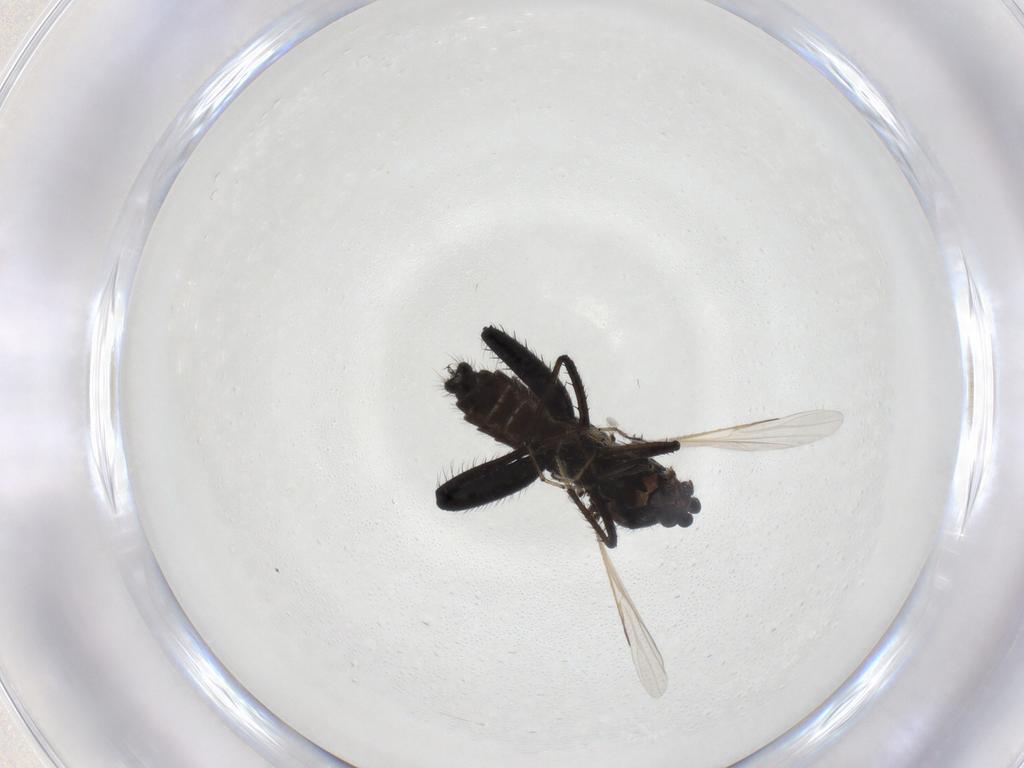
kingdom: Animalia
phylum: Arthropoda
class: Insecta
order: Diptera
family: Ceratopogonidae
